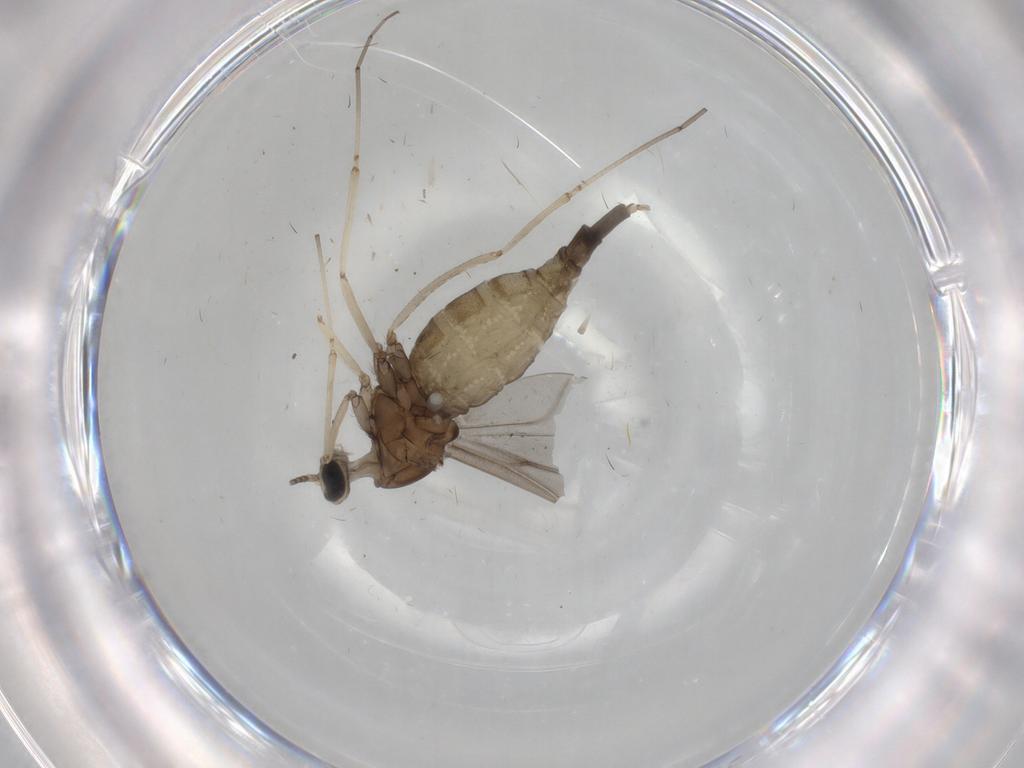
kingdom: Animalia
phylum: Arthropoda
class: Insecta
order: Diptera
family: Cecidomyiidae
